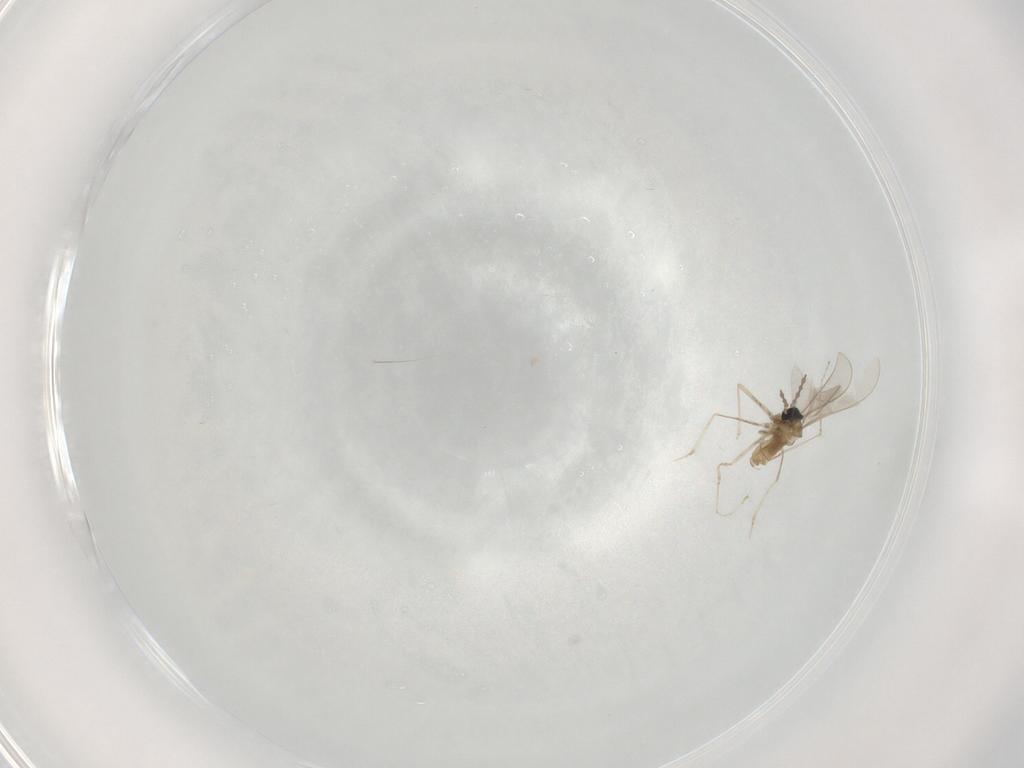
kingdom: Animalia
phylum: Arthropoda
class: Insecta
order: Diptera
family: Cecidomyiidae
